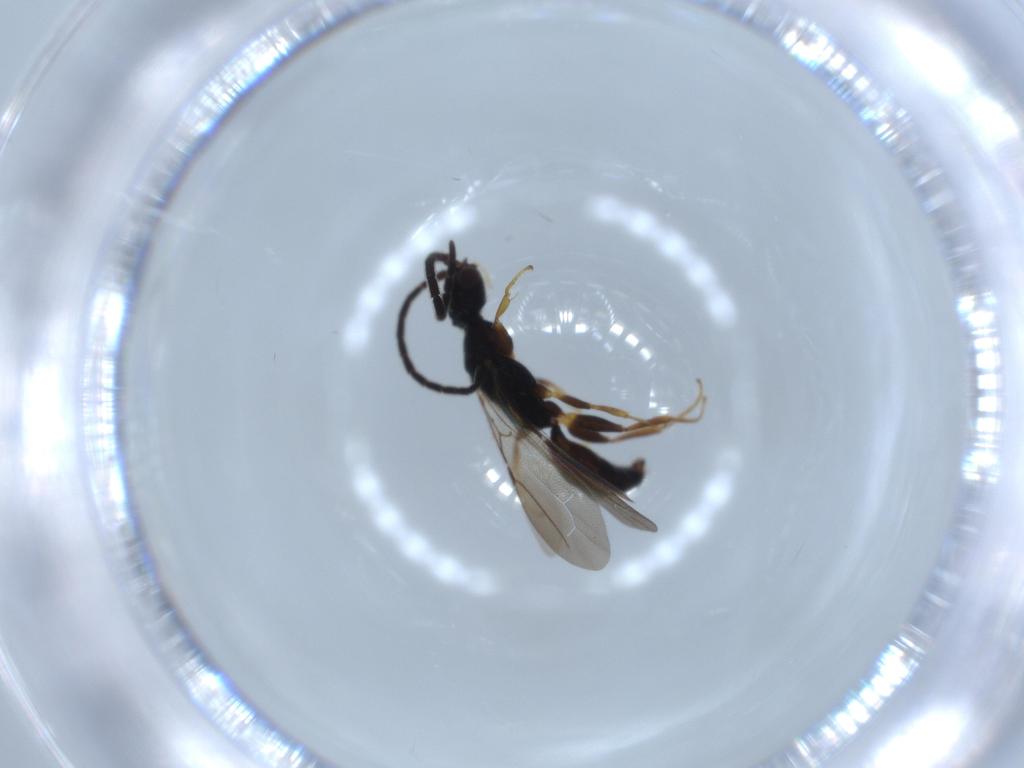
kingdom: Animalia
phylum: Arthropoda
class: Insecta
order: Hymenoptera
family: Bethylidae
